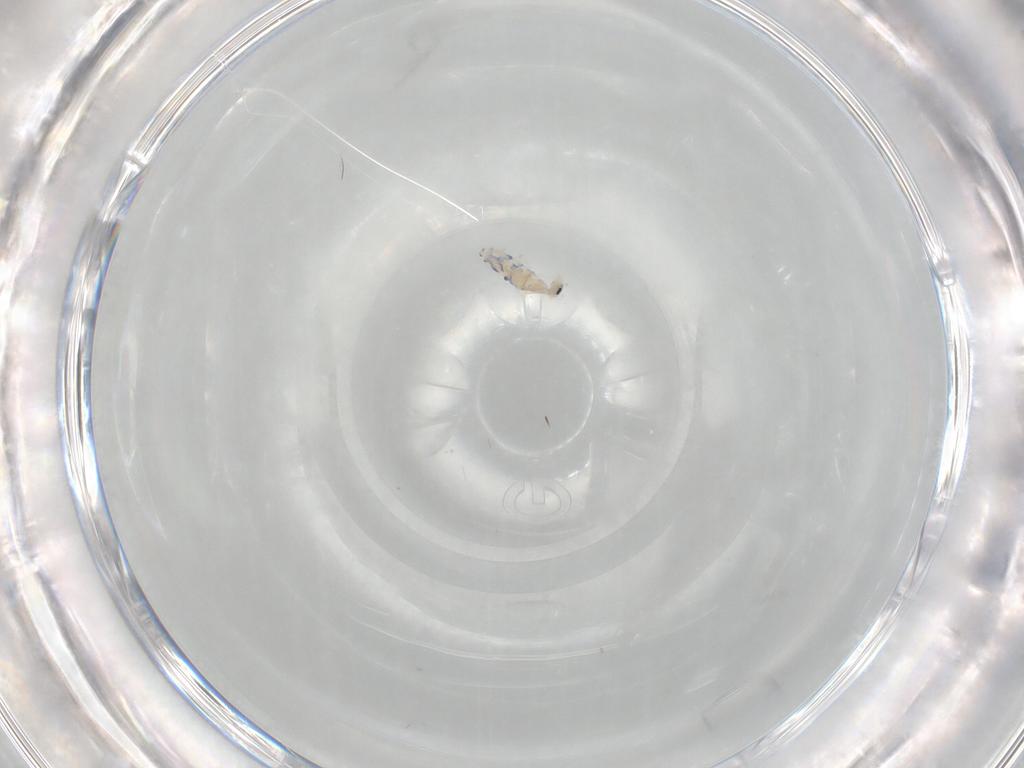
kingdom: Animalia
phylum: Arthropoda
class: Collembola
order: Entomobryomorpha
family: Entomobryidae
